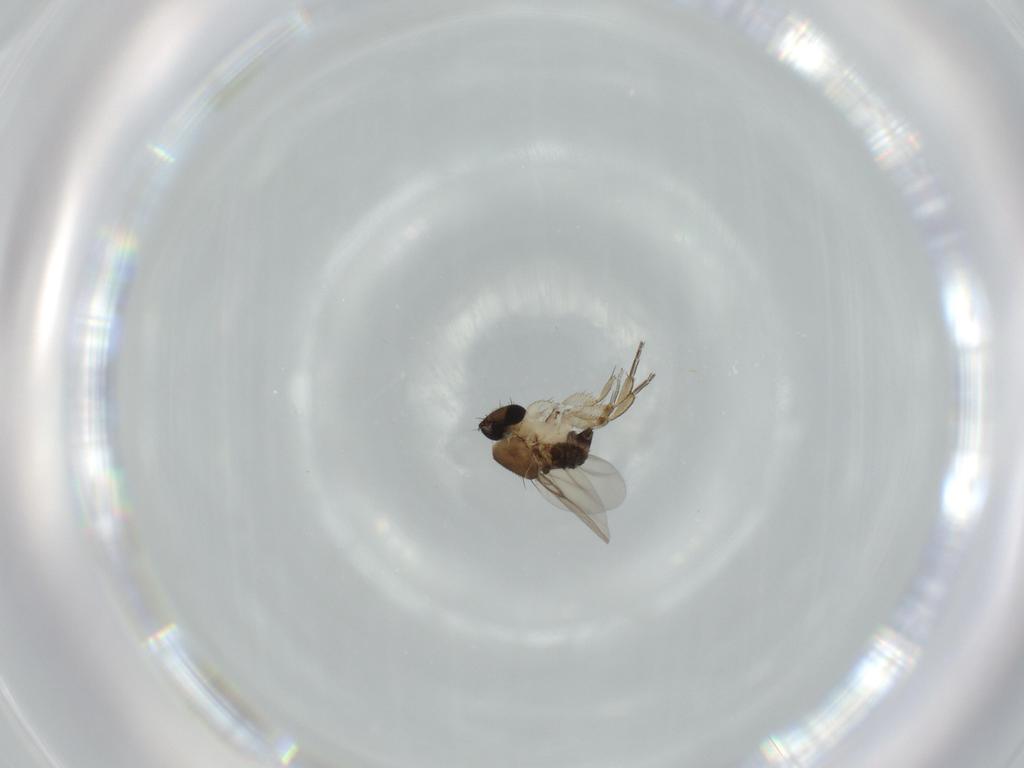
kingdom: Animalia
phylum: Arthropoda
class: Insecta
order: Diptera
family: Phoridae
